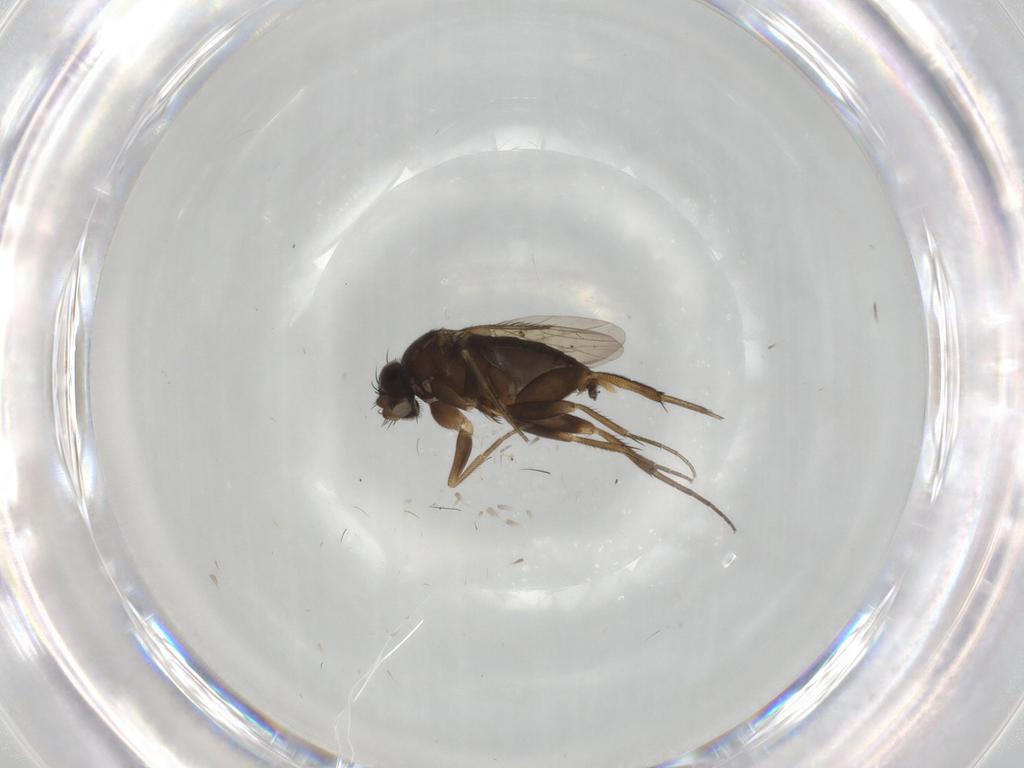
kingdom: Animalia
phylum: Arthropoda
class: Insecta
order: Diptera
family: Phoridae
